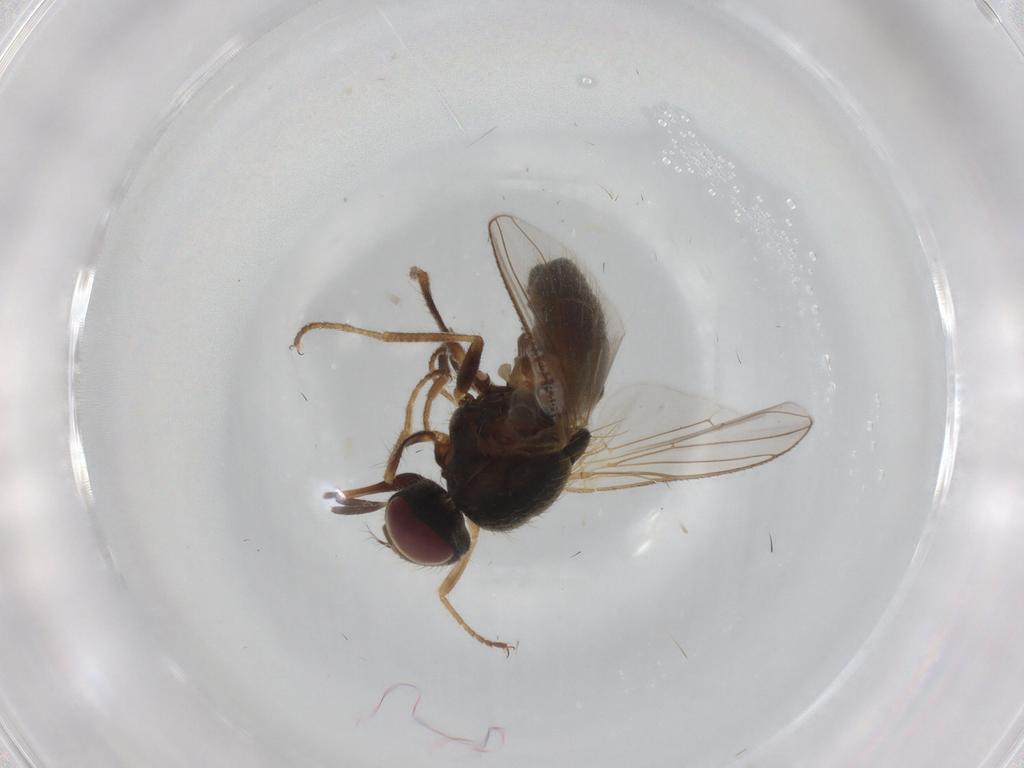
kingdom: Animalia
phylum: Arthropoda
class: Insecta
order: Diptera
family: Muscidae
